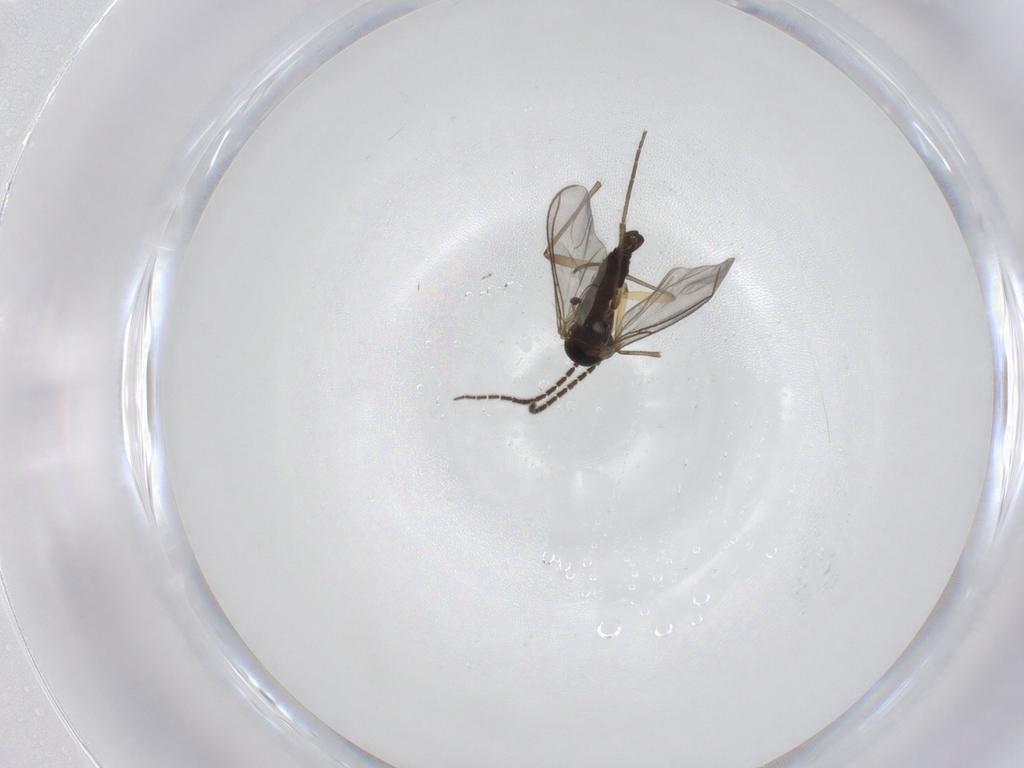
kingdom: Animalia
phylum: Arthropoda
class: Insecta
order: Diptera
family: Sciaridae
